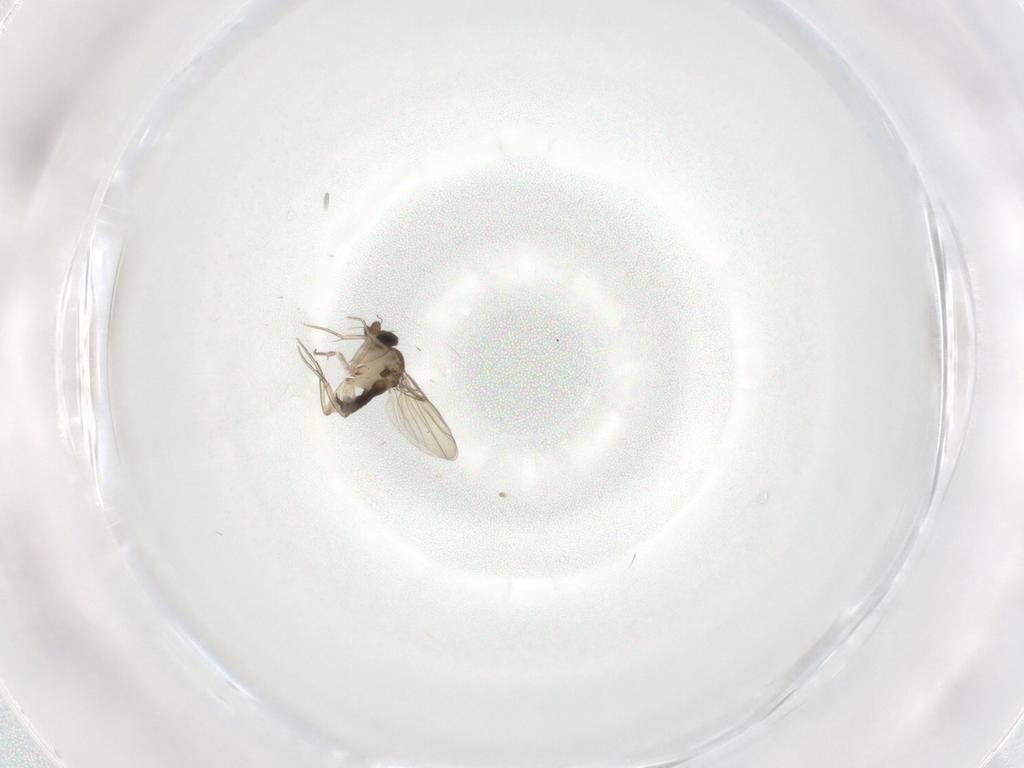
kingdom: Animalia
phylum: Arthropoda
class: Insecta
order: Diptera
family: Phoridae
